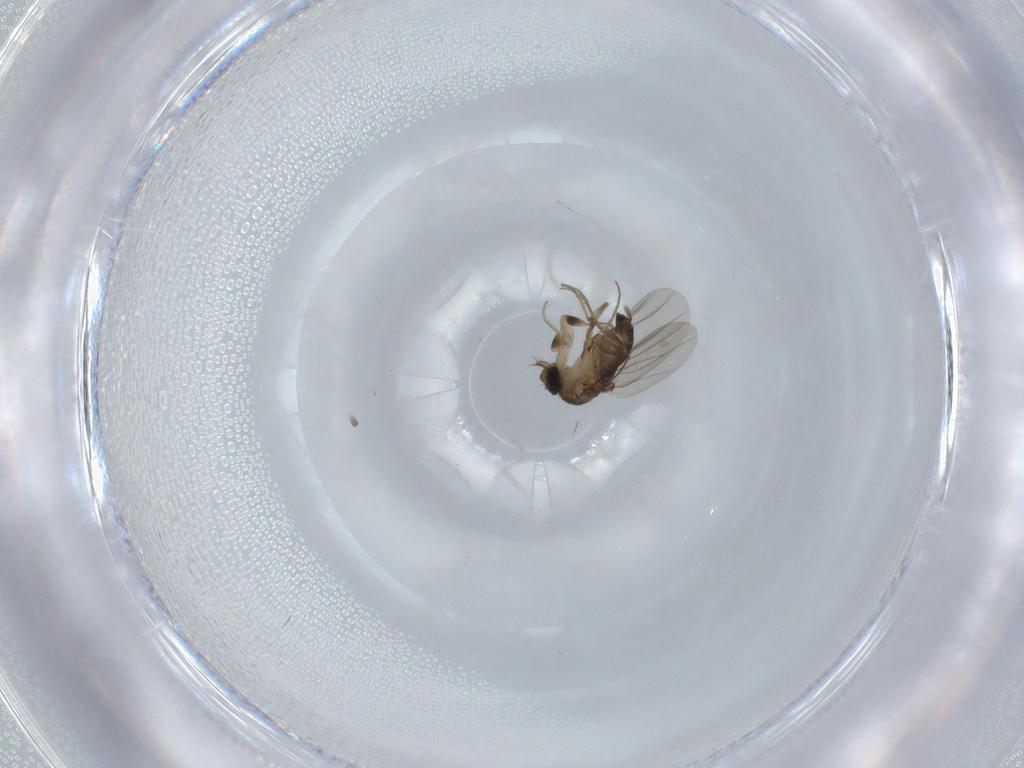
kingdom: Animalia
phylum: Arthropoda
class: Insecta
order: Diptera
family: Phoridae
